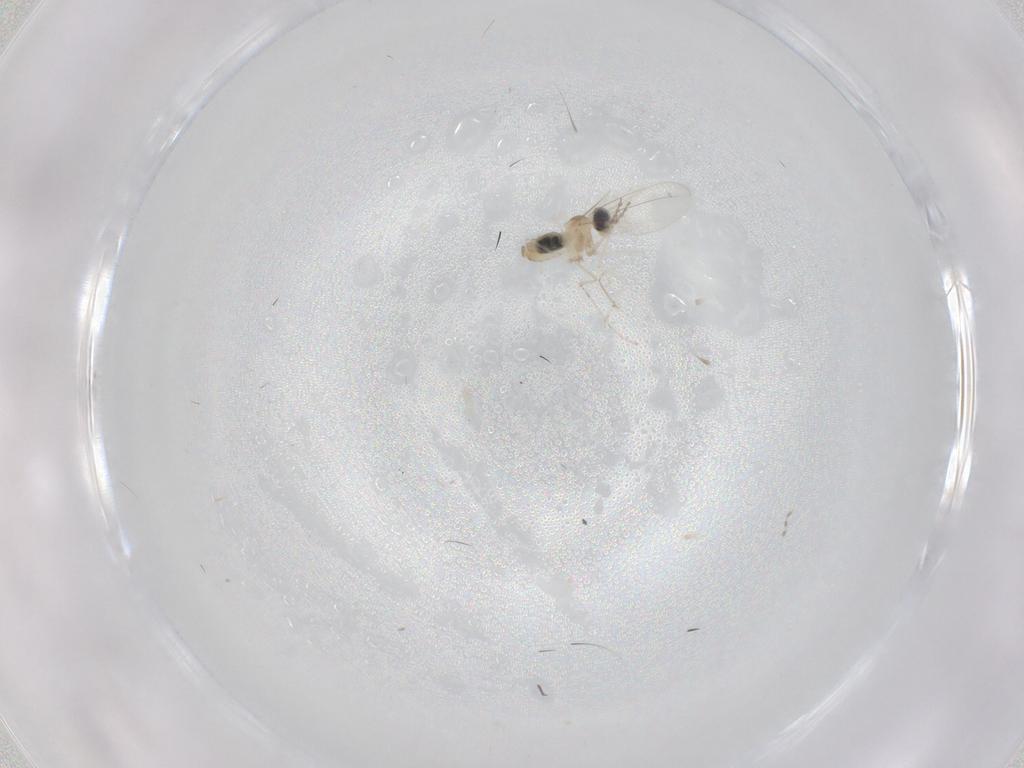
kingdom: Animalia
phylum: Arthropoda
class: Insecta
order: Diptera
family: Cecidomyiidae
